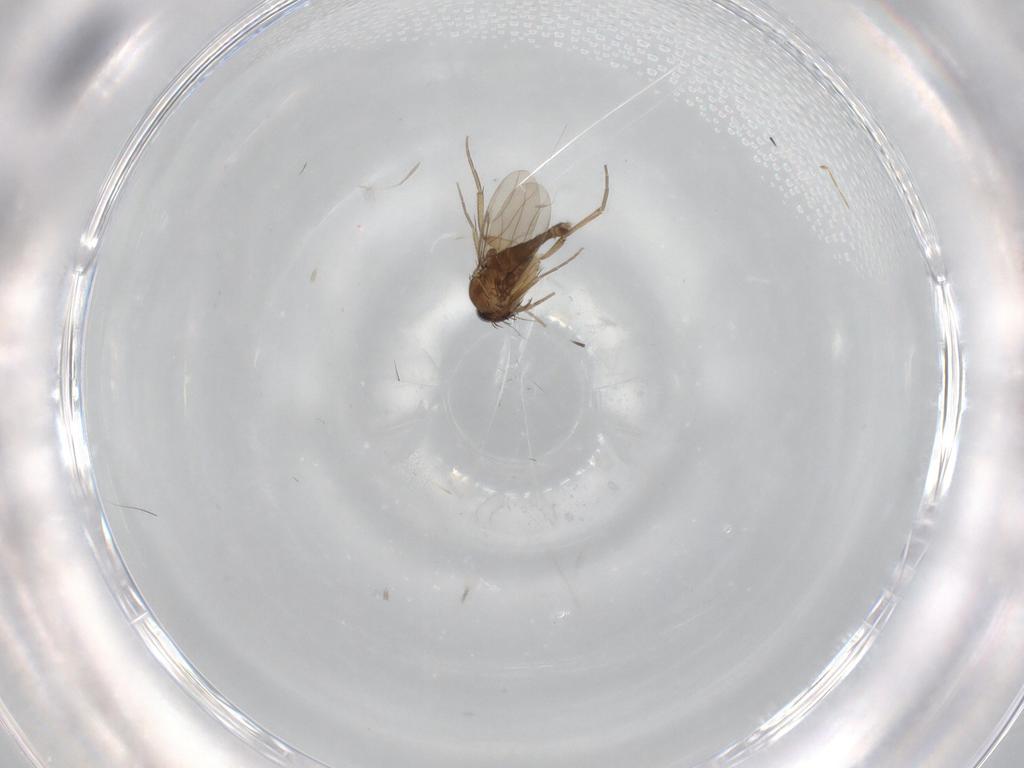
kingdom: Animalia
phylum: Arthropoda
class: Insecta
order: Diptera
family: Phoridae
